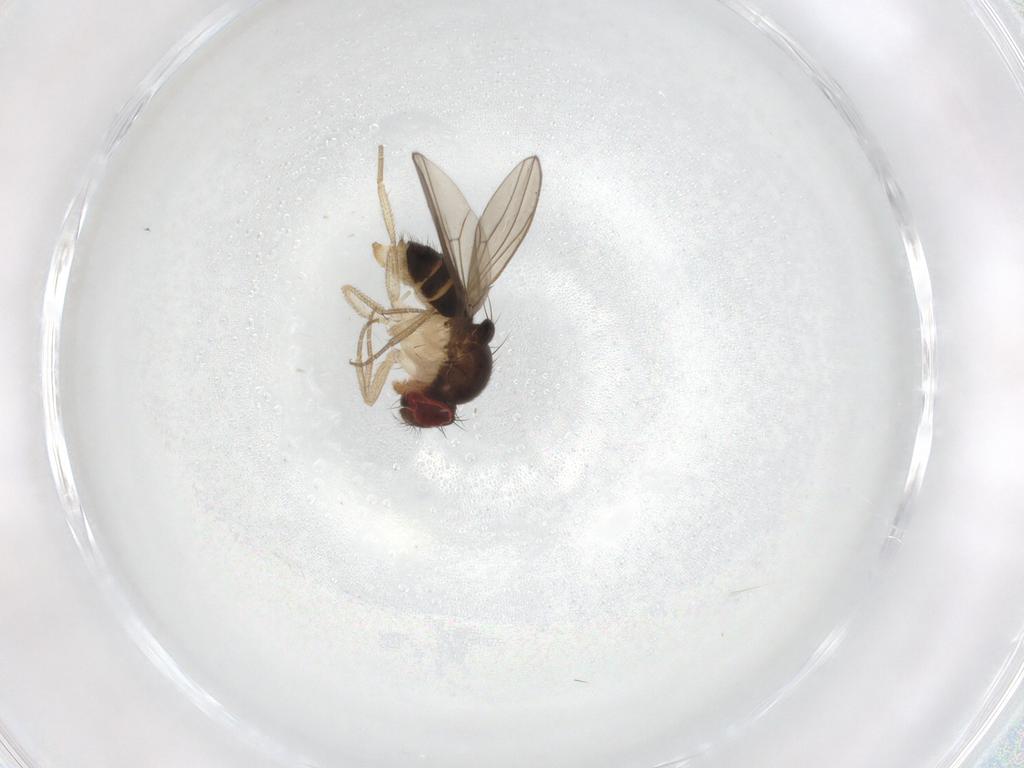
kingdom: Animalia
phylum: Arthropoda
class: Insecta
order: Diptera
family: Drosophilidae
